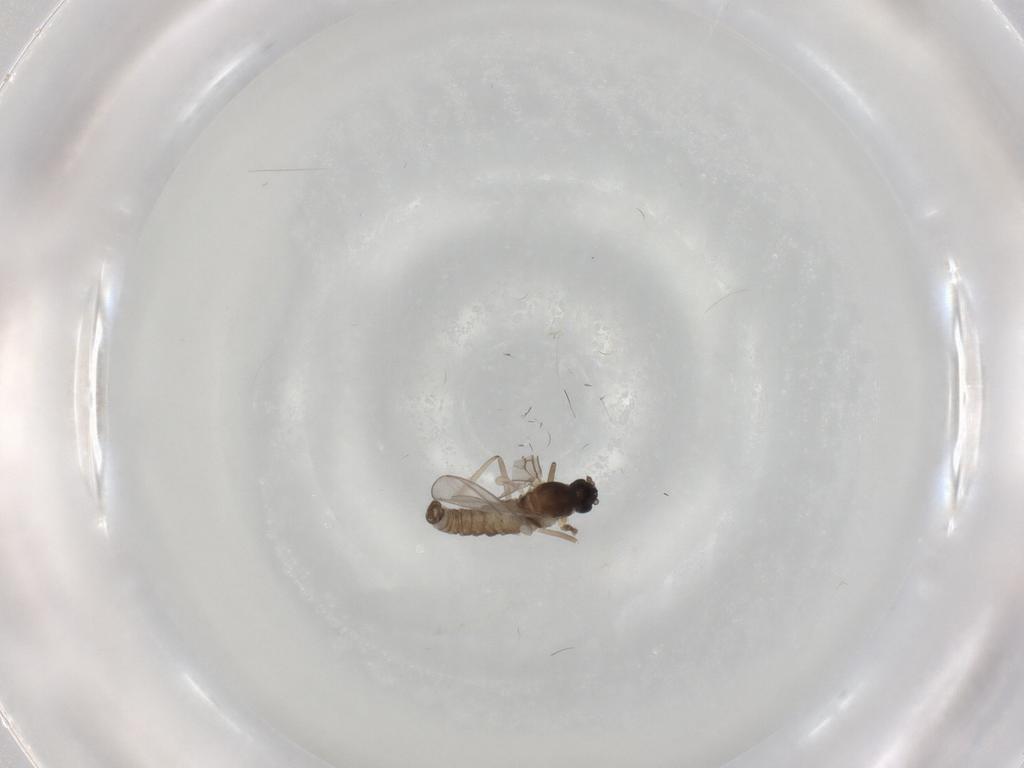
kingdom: Animalia
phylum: Arthropoda
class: Insecta
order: Diptera
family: Cecidomyiidae
